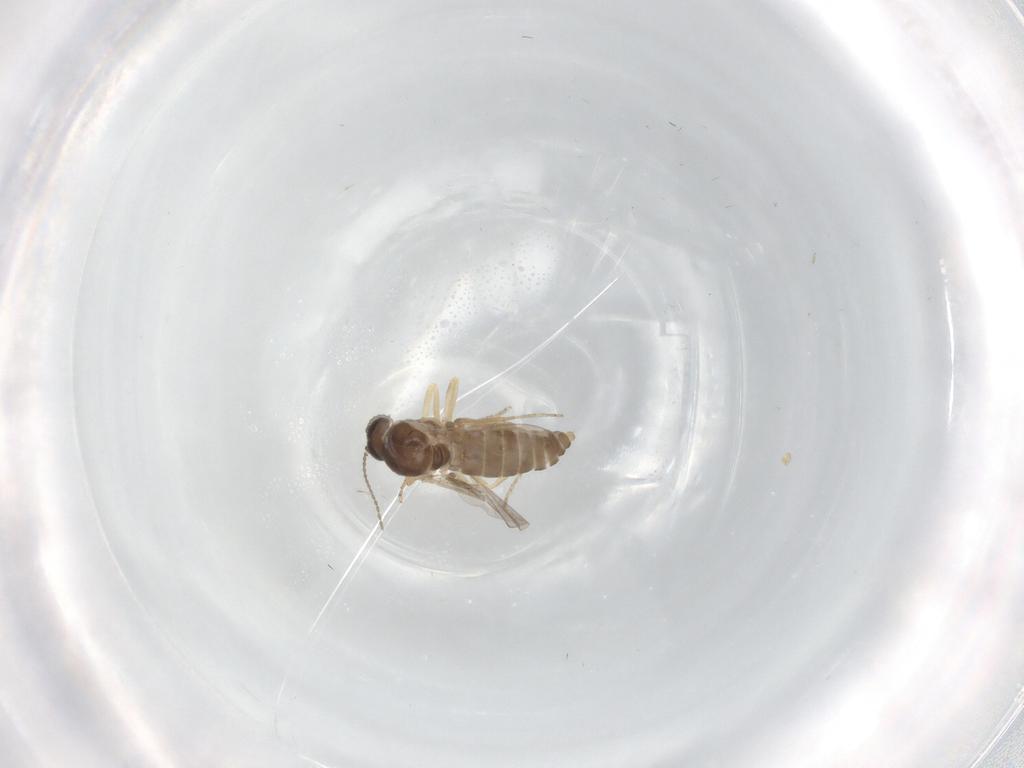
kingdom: Animalia
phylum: Arthropoda
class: Insecta
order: Diptera
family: Ceratopogonidae
